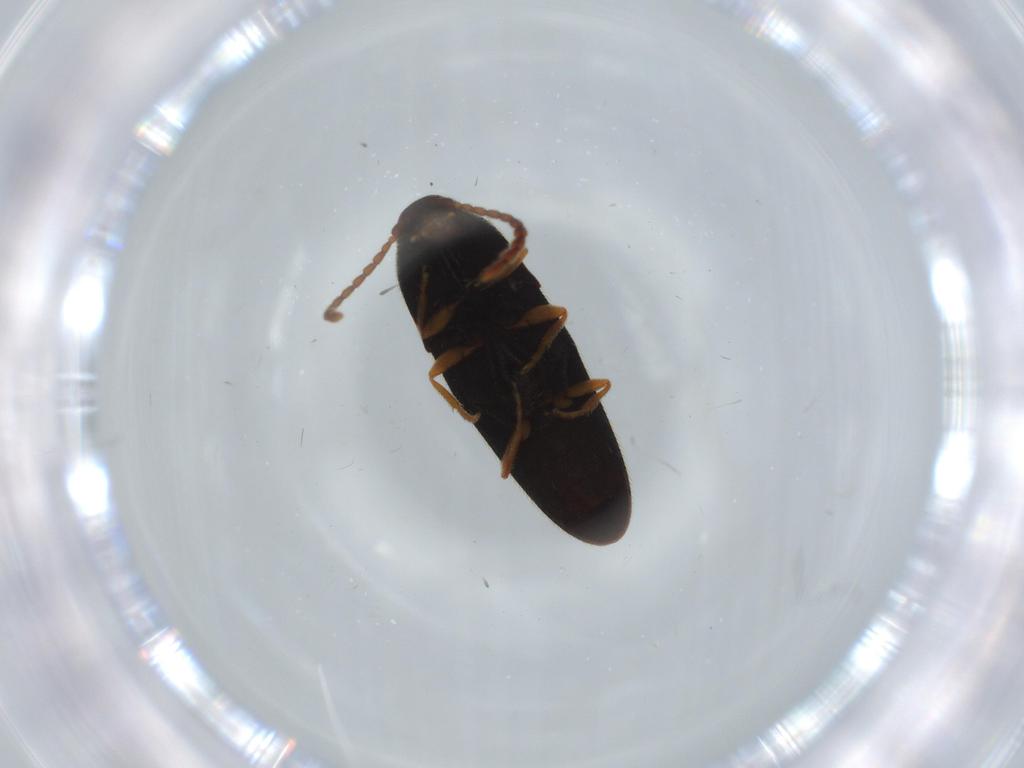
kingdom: Animalia
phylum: Arthropoda
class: Insecta
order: Coleoptera
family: Elateridae
